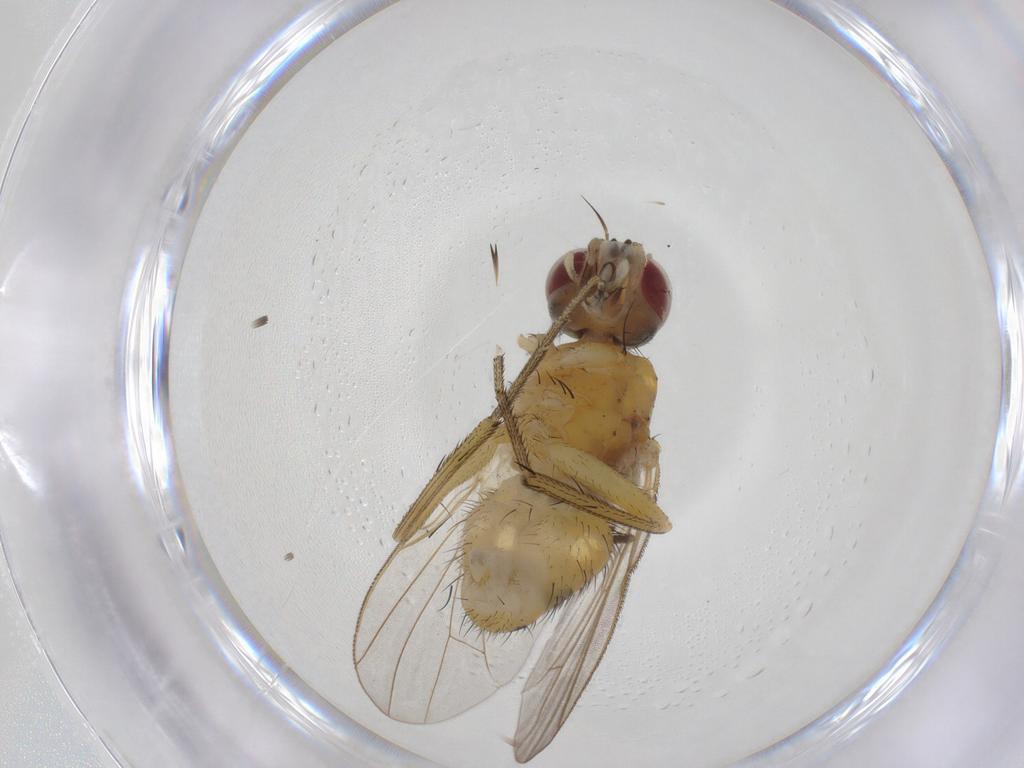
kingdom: Animalia
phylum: Arthropoda
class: Insecta
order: Diptera
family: Muscidae
